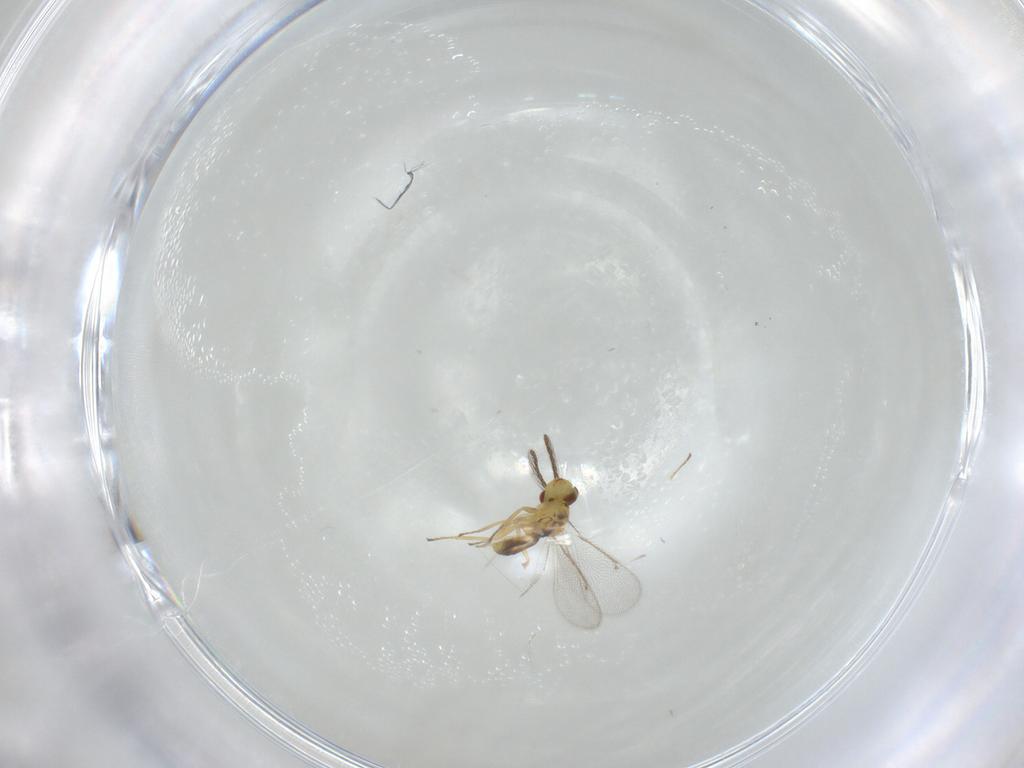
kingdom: Animalia
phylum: Arthropoda
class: Insecta
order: Hymenoptera
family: Eulophidae
